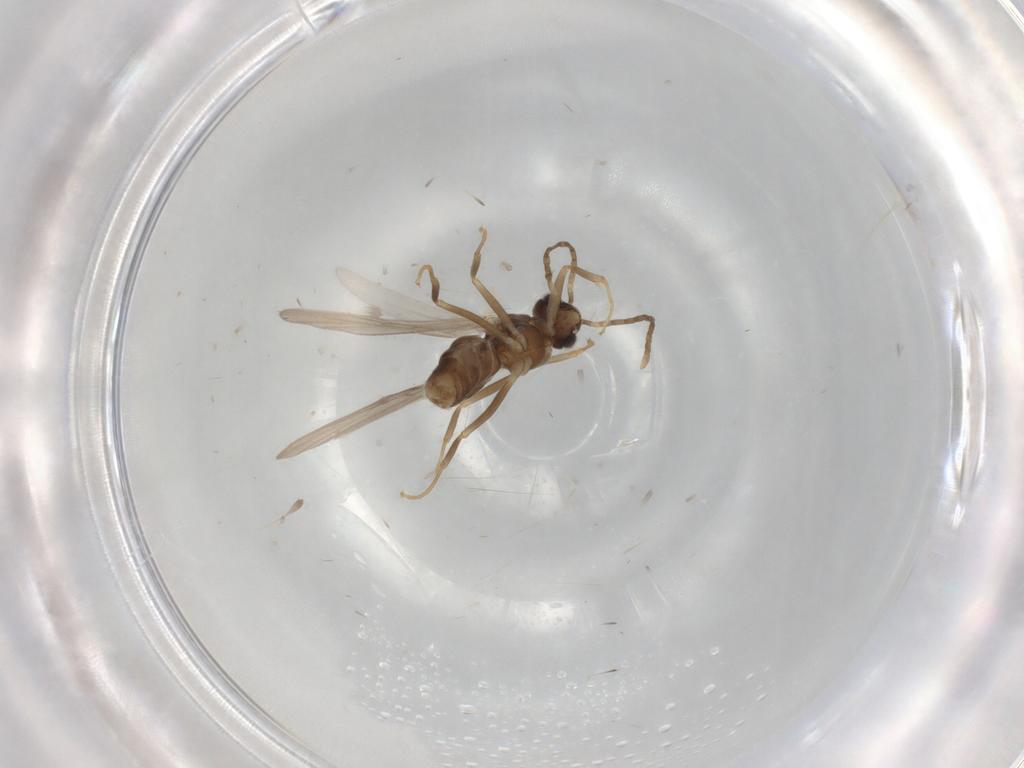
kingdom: Animalia
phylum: Arthropoda
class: Insecta
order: Hymenoptera
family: Formicidae
